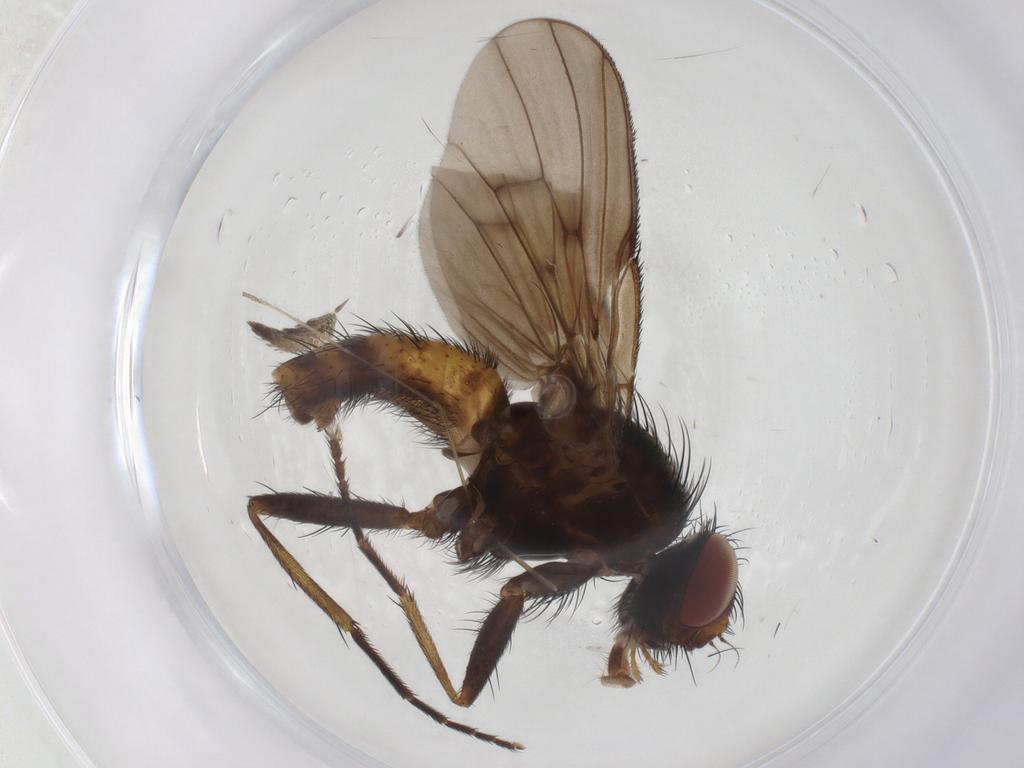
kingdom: Animalia
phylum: Arthropoda
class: Insecta
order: Diptera
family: Muscidae
